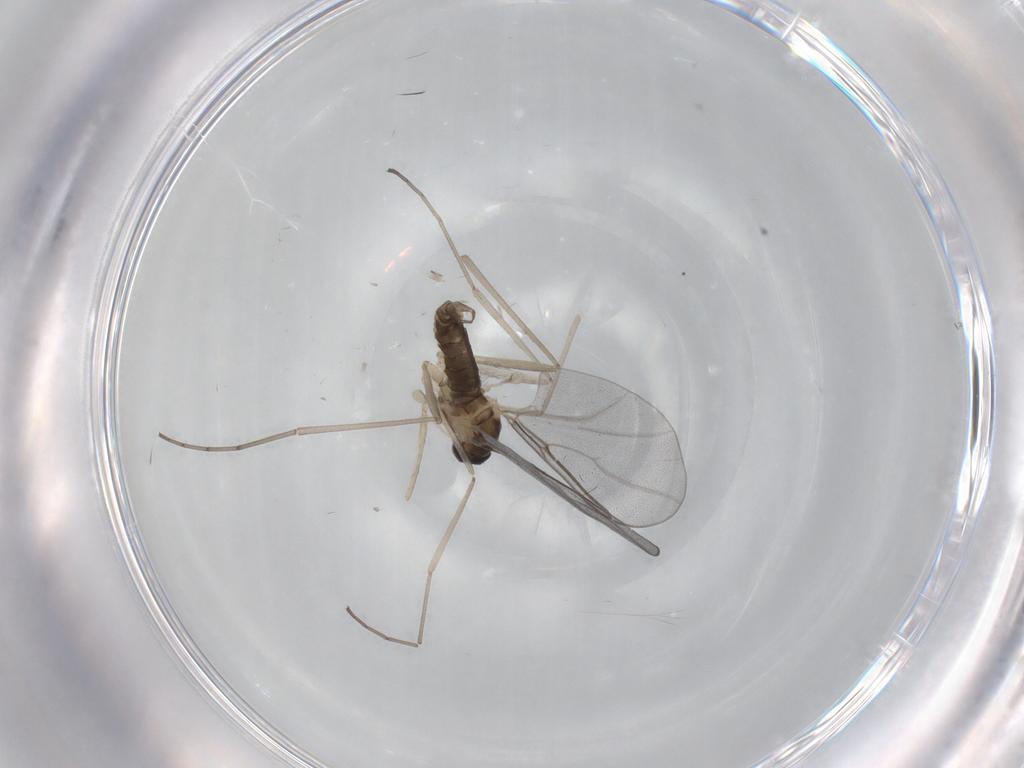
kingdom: Animalia
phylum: Arthropoda
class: Insecta
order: Diptera
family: Cecidomyiidae
